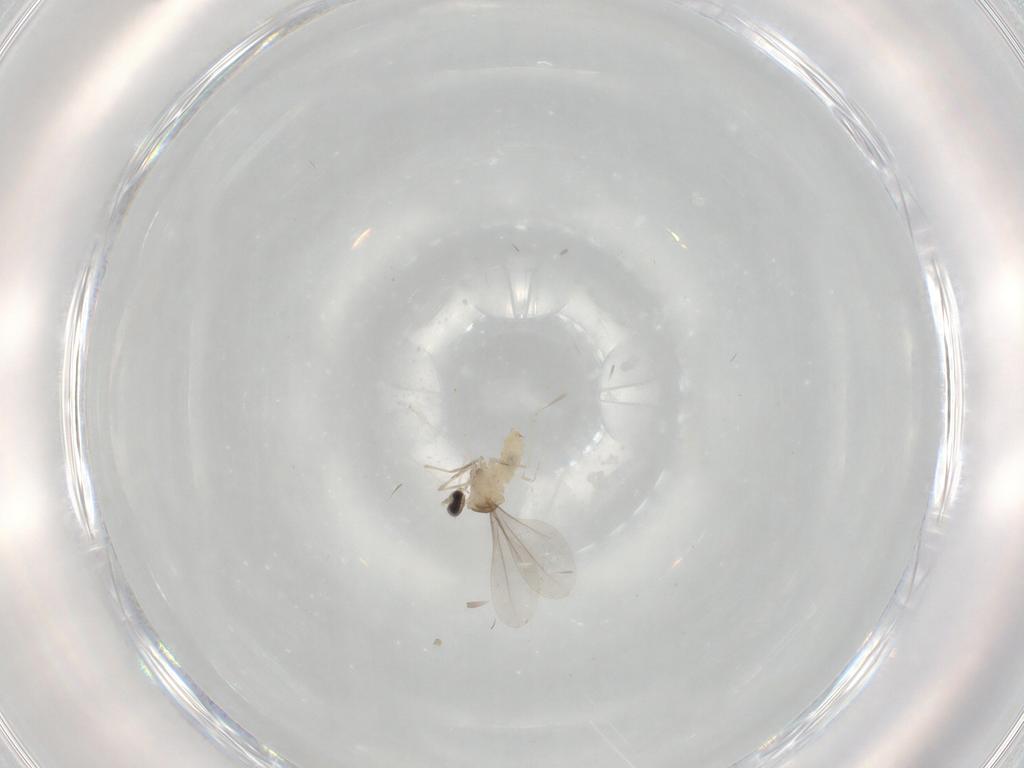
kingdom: Animalia
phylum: Arthropoda
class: Insecta
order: Diptera
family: Cecidomyiidae
